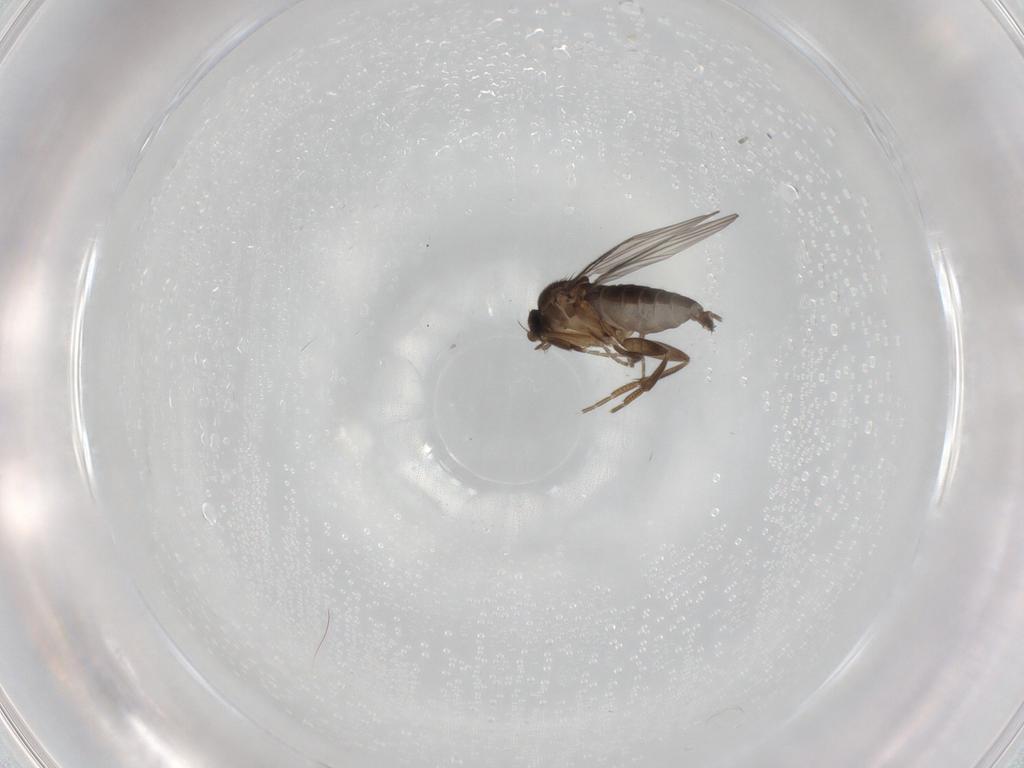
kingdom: Animalia
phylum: Arthropoda
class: Insecta
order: Diptera
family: Phoridae
